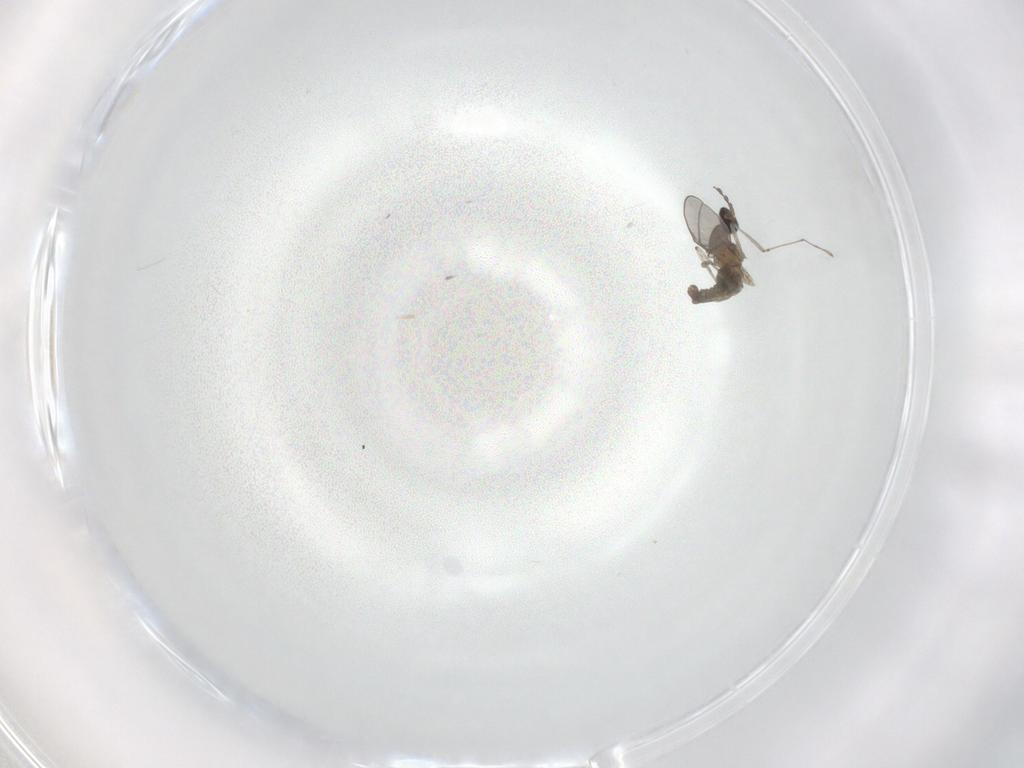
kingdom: Animalia
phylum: Arthropoda
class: Insecta
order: Diptera
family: Cecidomyiidae
